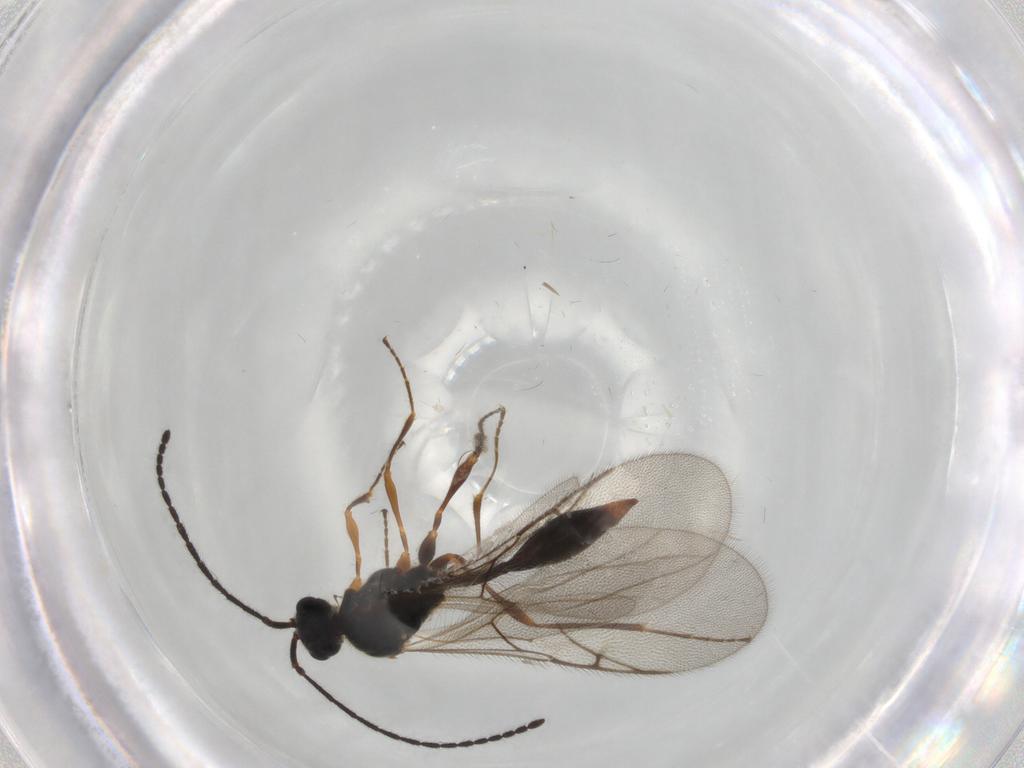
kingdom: Animalia
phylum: Arthropoda
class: Insecta
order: Hymenoptera
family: Diapriidae
